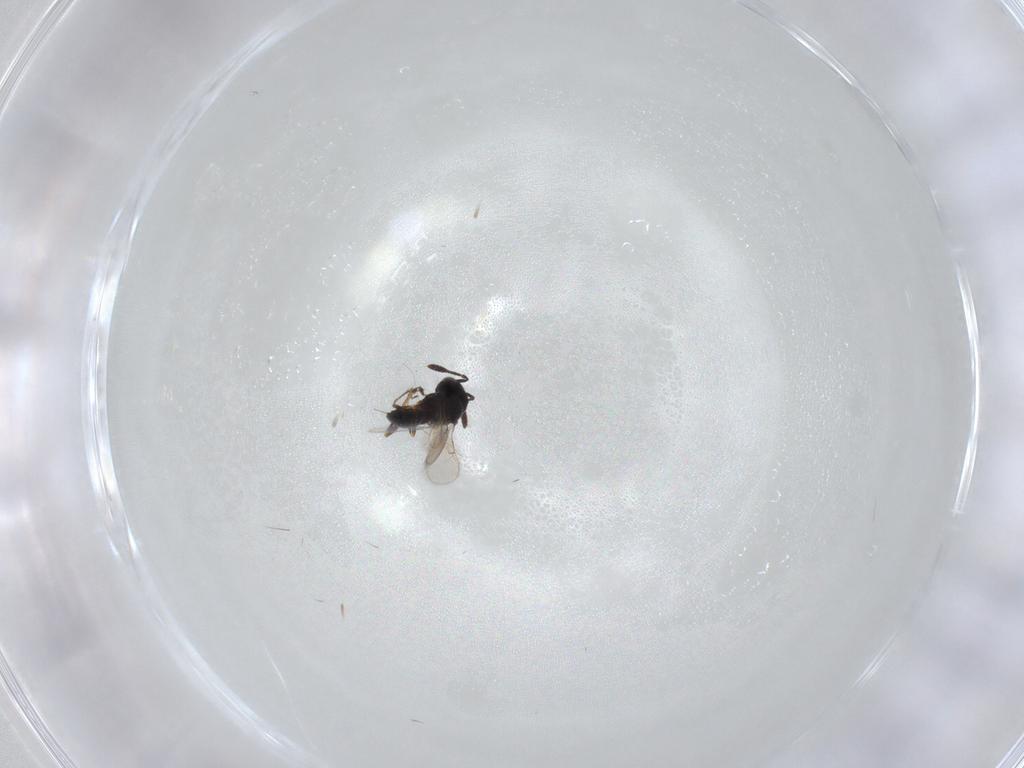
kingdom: Animalia
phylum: Arthropoda
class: Insecta
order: Hymenoptera
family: Scelionidae
